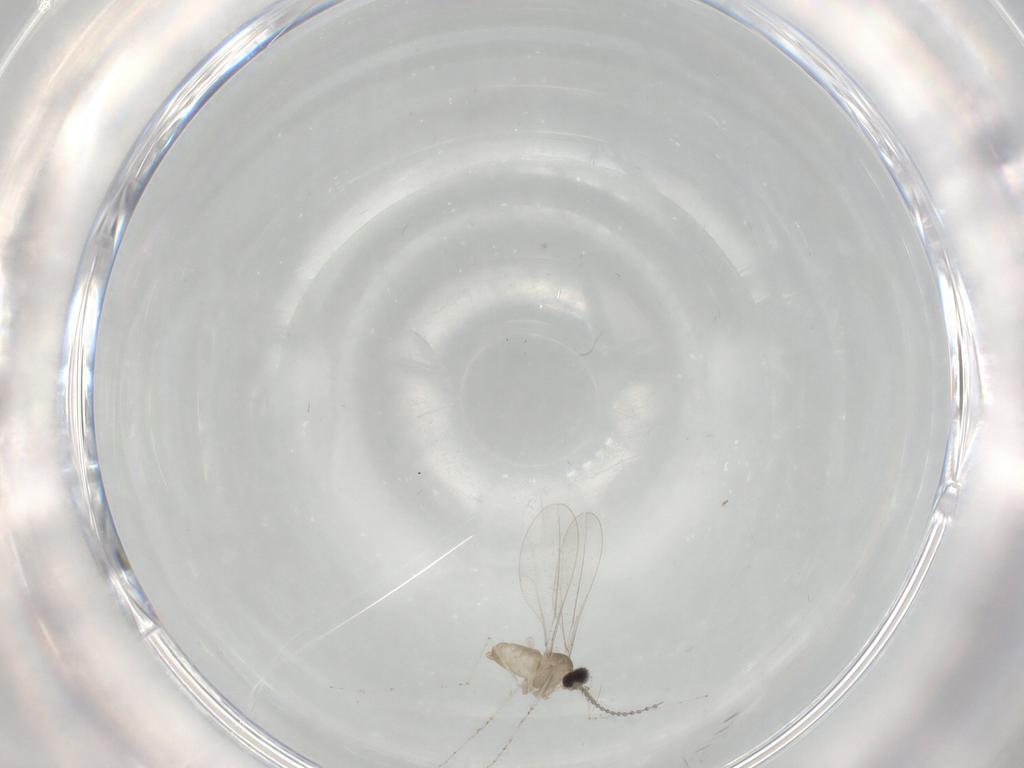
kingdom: Animalia
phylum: Arthropoda
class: Insecta
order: Diptera
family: Cecidomyiidae
